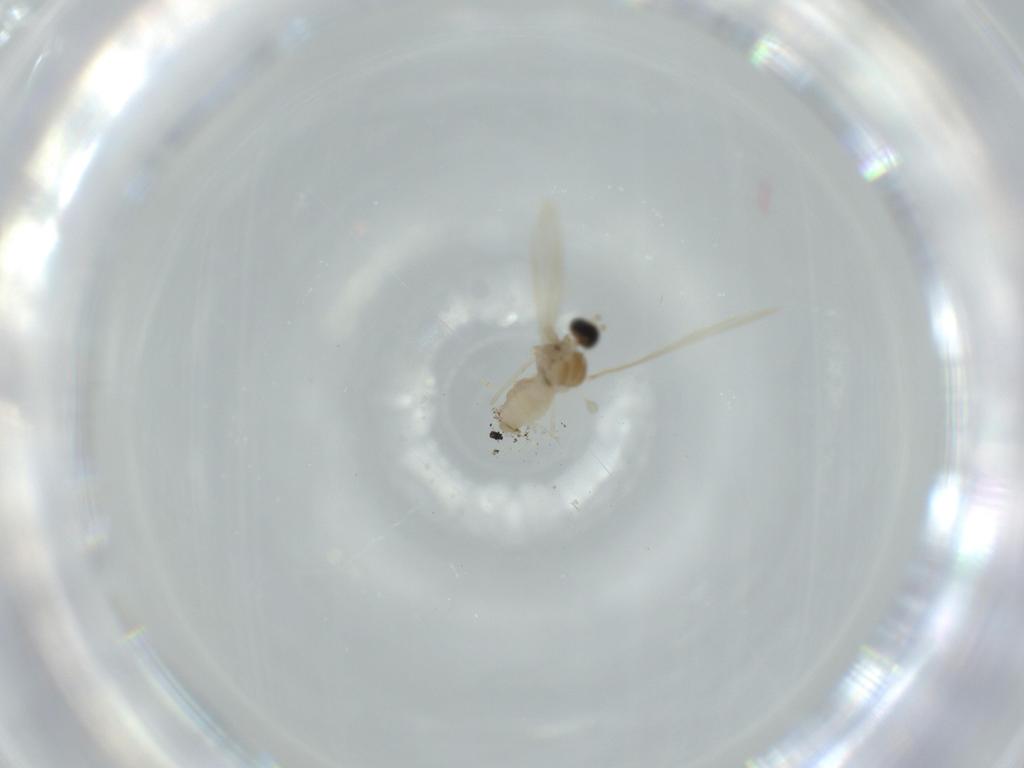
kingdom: Animalia
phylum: Arthropoda
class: Insecta
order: Diptera
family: Cecidomyiidae
